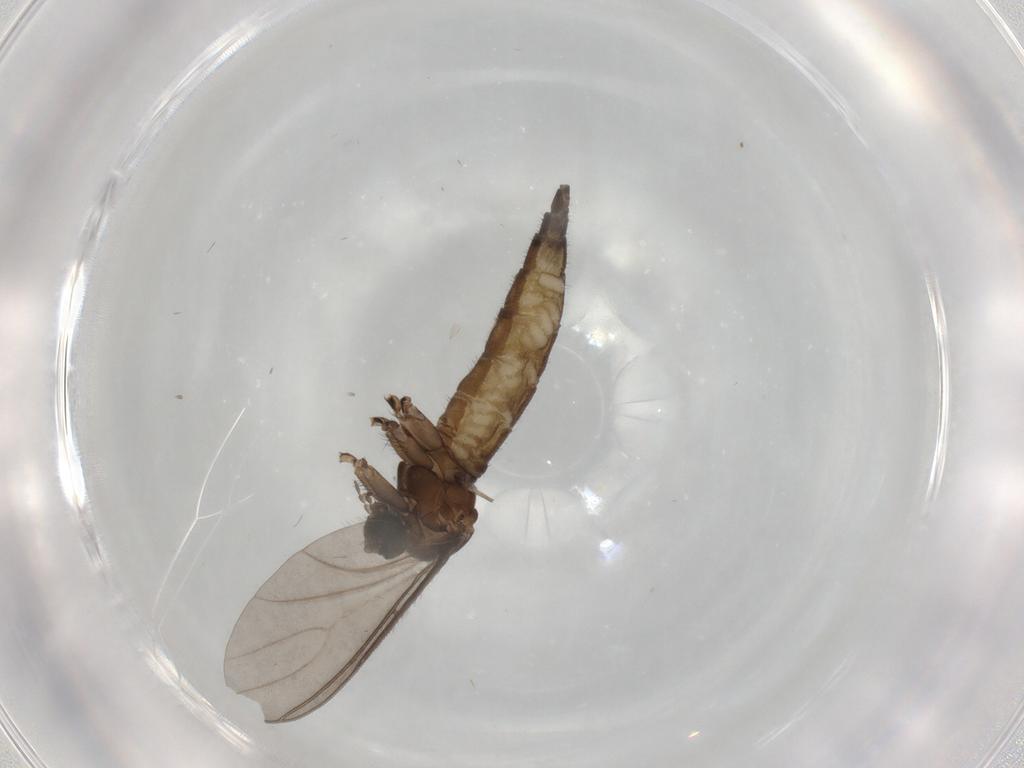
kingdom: Animalia
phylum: Arthropoda
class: Insecta
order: Diptera
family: Sciaridae
